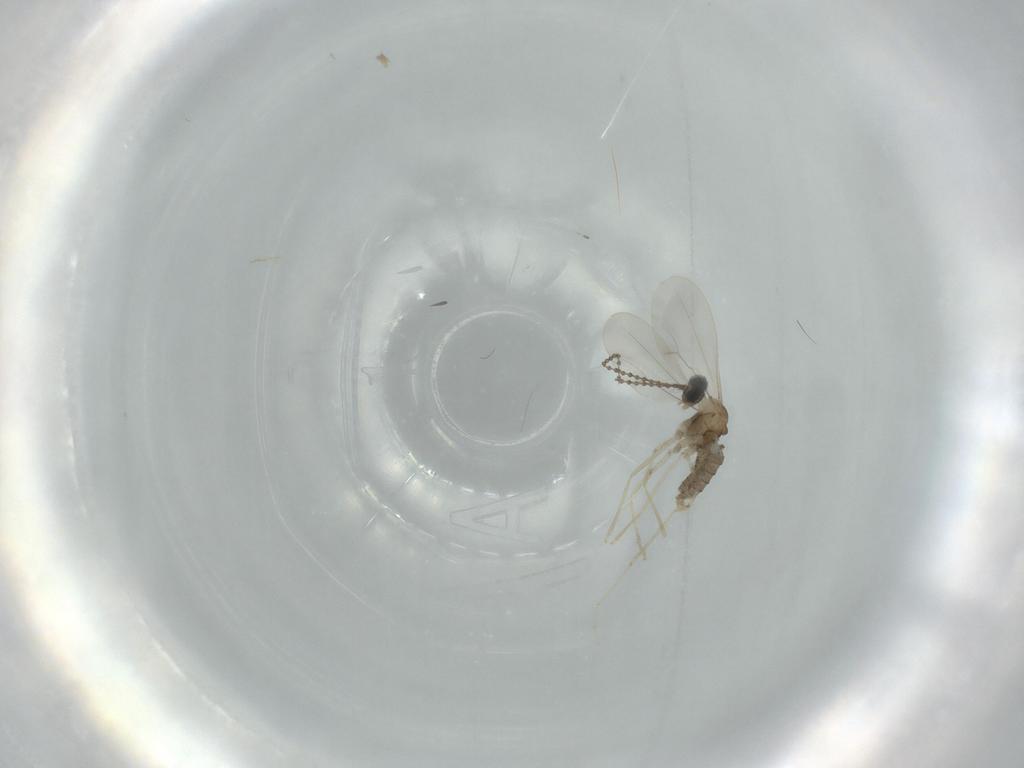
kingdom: Animalia
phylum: Arthropoda
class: Insecta
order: Diptera
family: Cecidomyiidae
